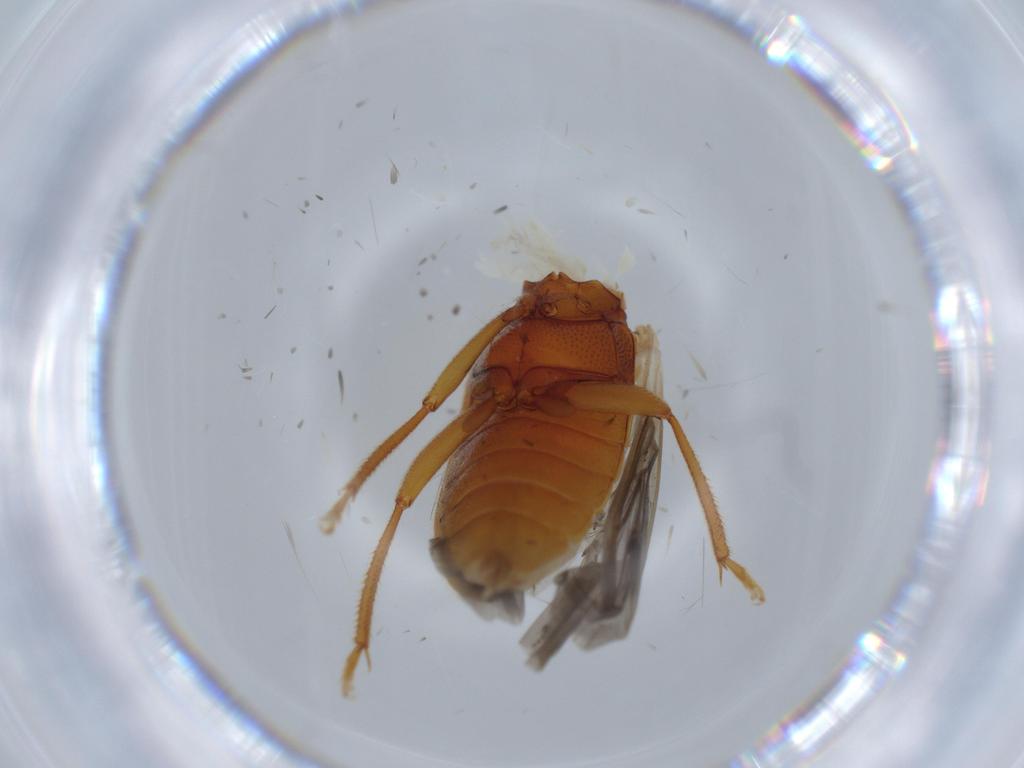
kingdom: Animalia
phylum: Arthropoda
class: Insecta
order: Coleoptera
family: Ptilodactylidae
